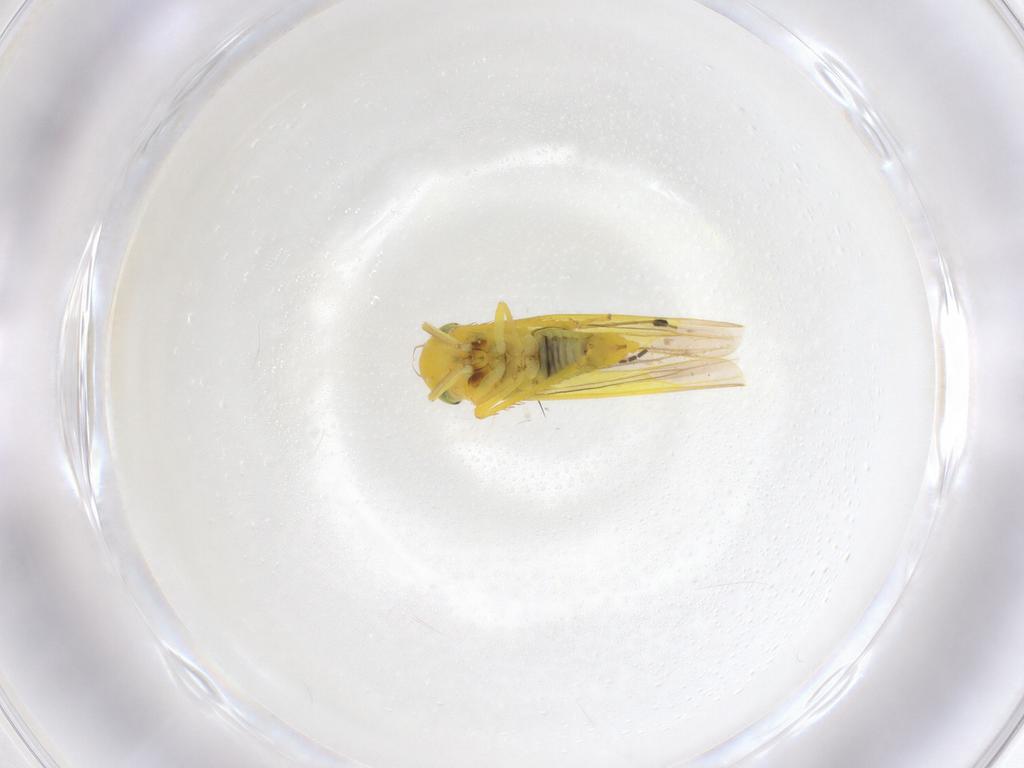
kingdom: Animalia
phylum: Arthropoda
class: Insecta
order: Hemiptera
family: Cicadellidae
